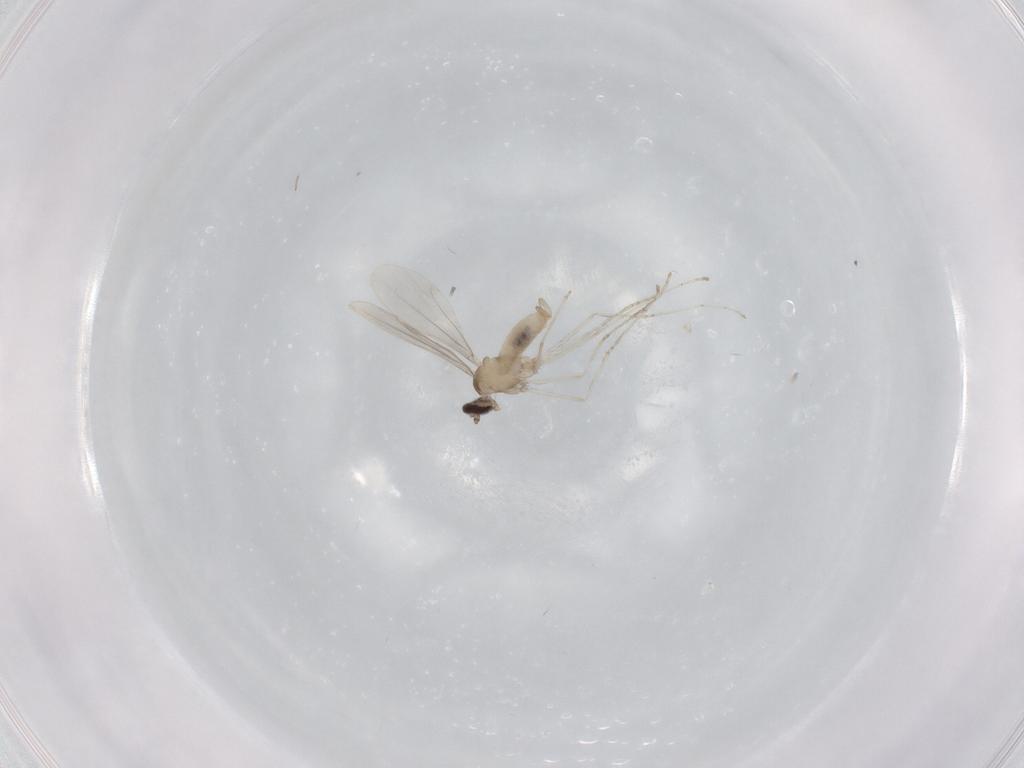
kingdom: Animalia
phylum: Arthropoda
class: Insecta
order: Diptera
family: Cecidomyiidae
